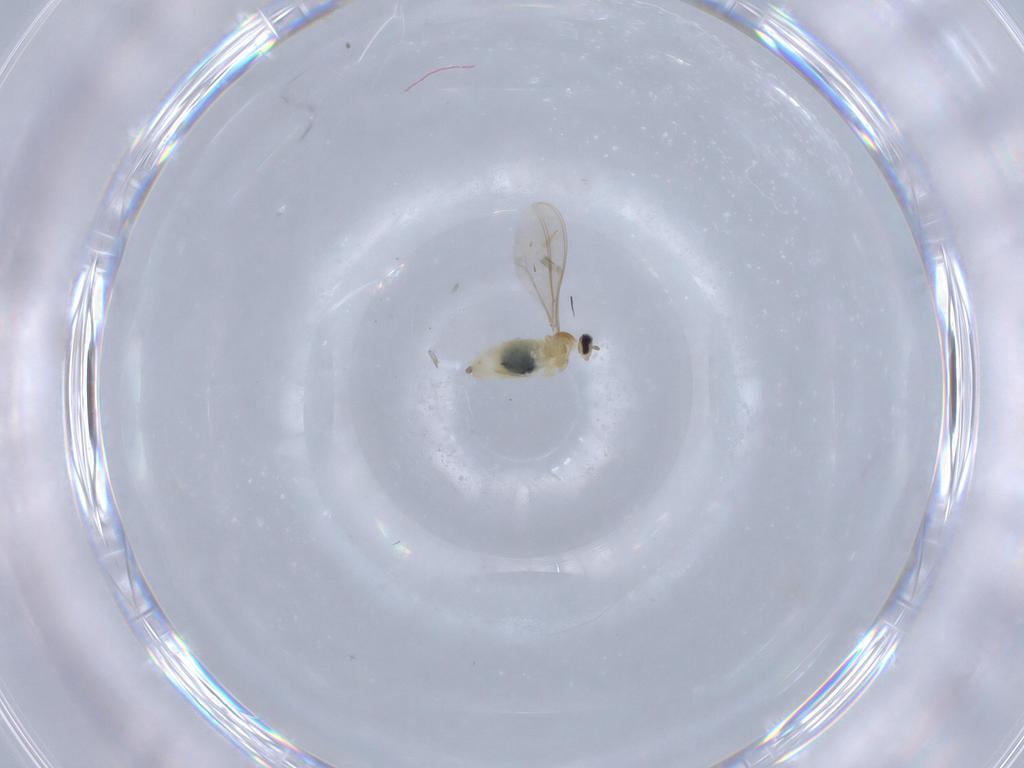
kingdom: Animalia
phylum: Arthropoda
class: Insecta
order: Diptera
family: Cecidomyiidae
